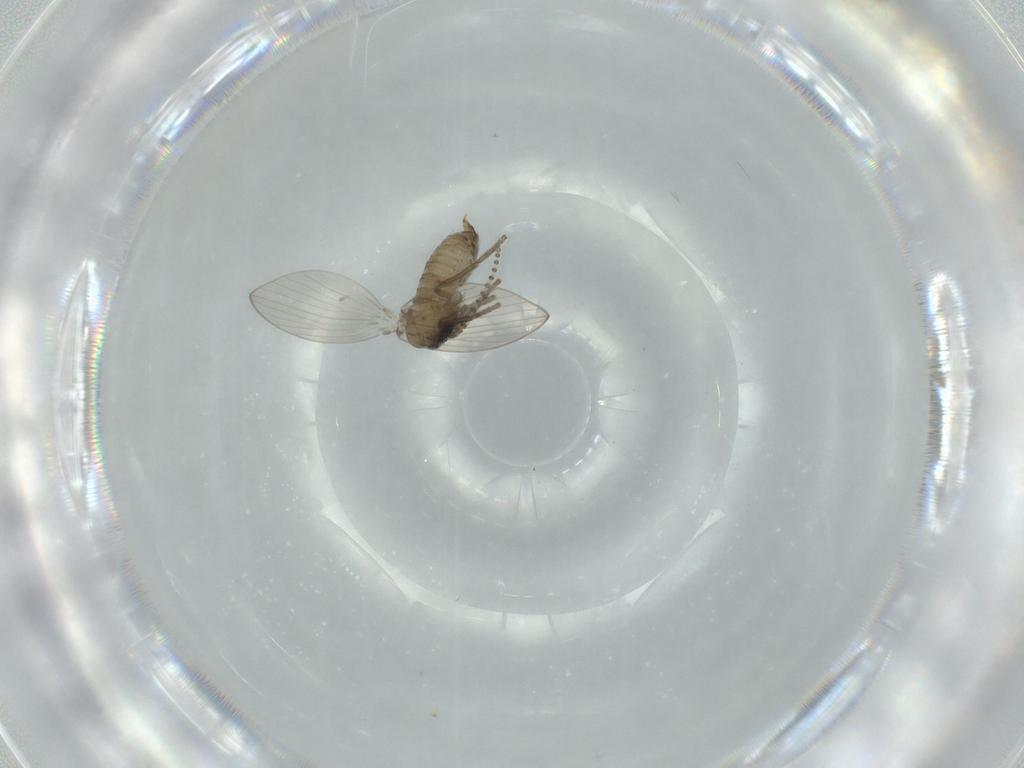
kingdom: Animalia
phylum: Arthropoda
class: Insecta
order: Diptera
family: Psychodidae
